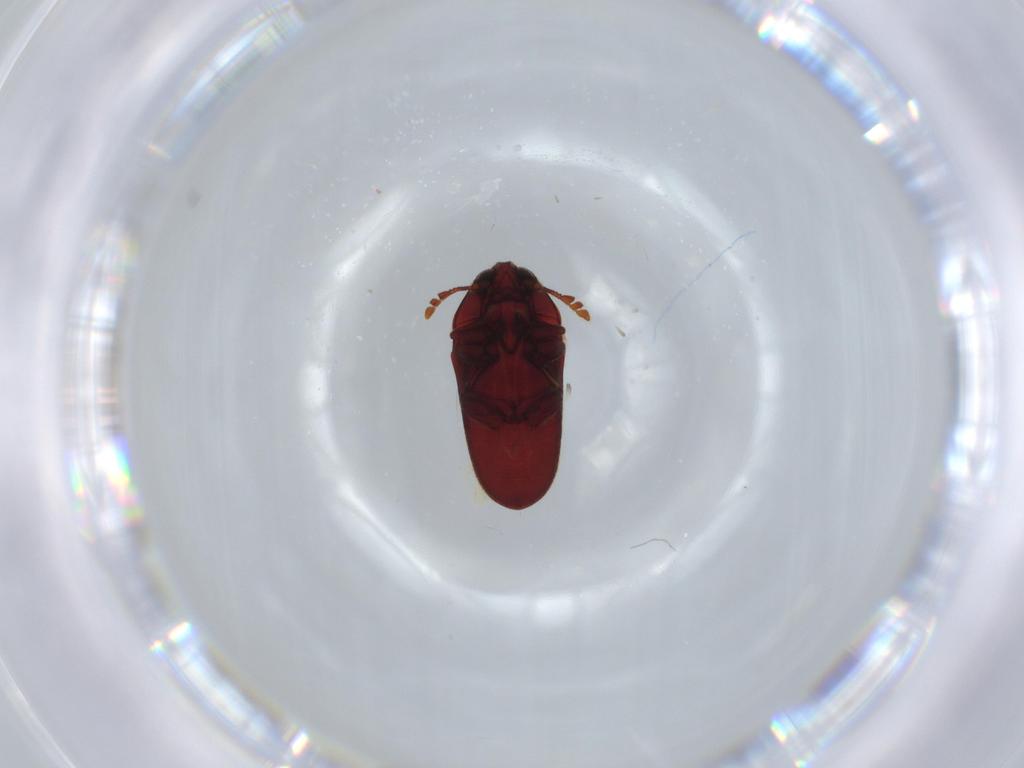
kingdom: Animalia
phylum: Arthropoda
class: Insecta
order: Coleoptera
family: Throscidae
